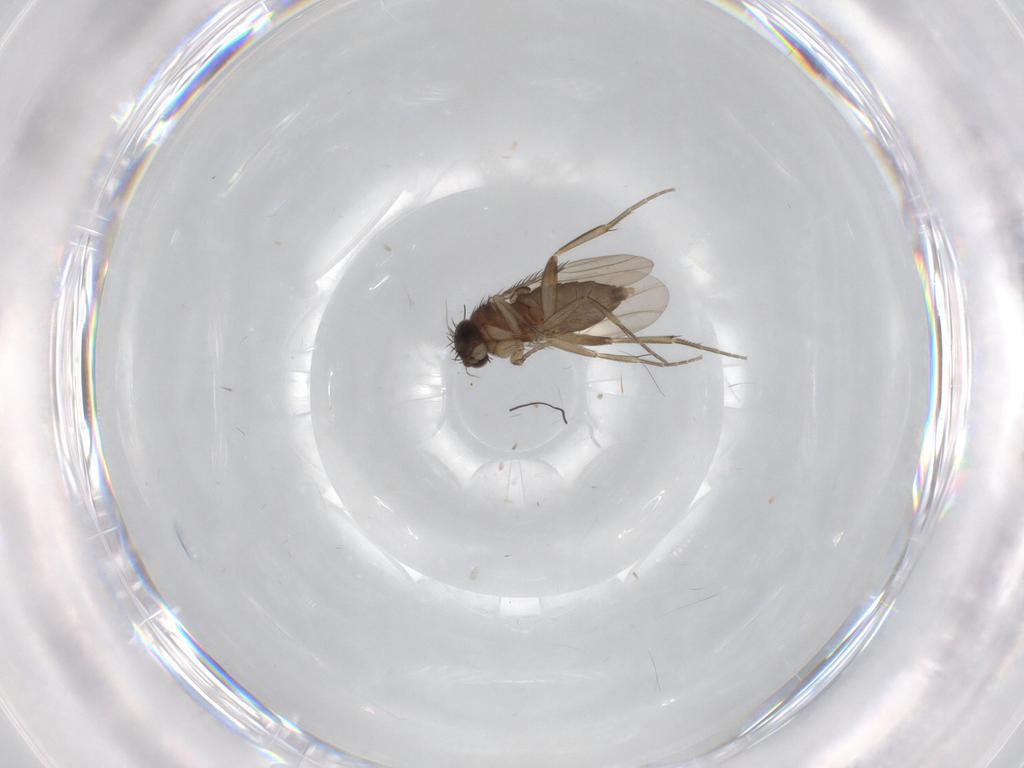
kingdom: Animalia
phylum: Arthropoda
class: Insecta
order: Diptera
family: Phoridae
